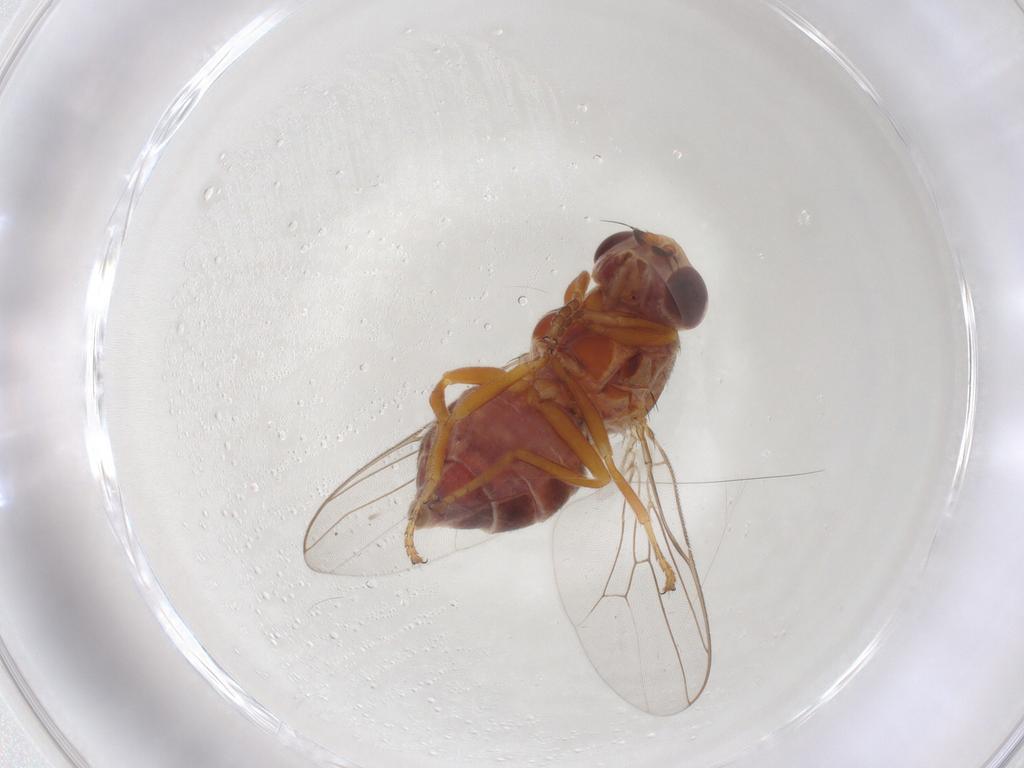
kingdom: Animalia
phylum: Arthropoda
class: Insecta
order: Diptera
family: Chloropidae
